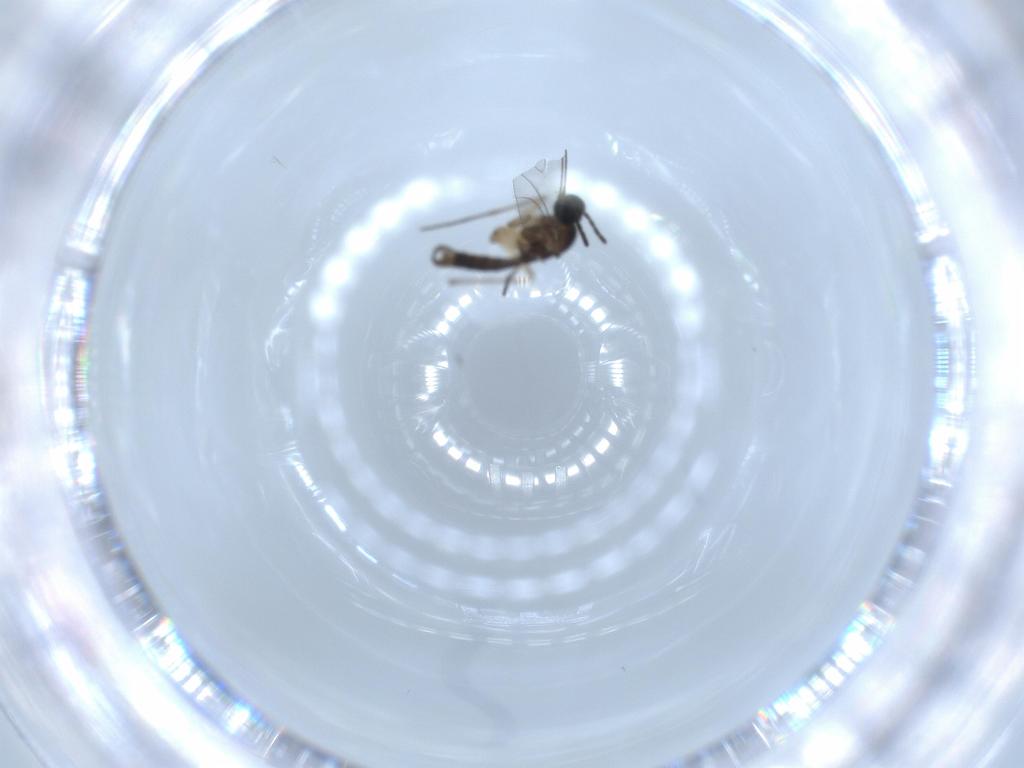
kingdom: Animalia
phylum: Arthropoda
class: Insecta
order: Diptera
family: Sciaridae
